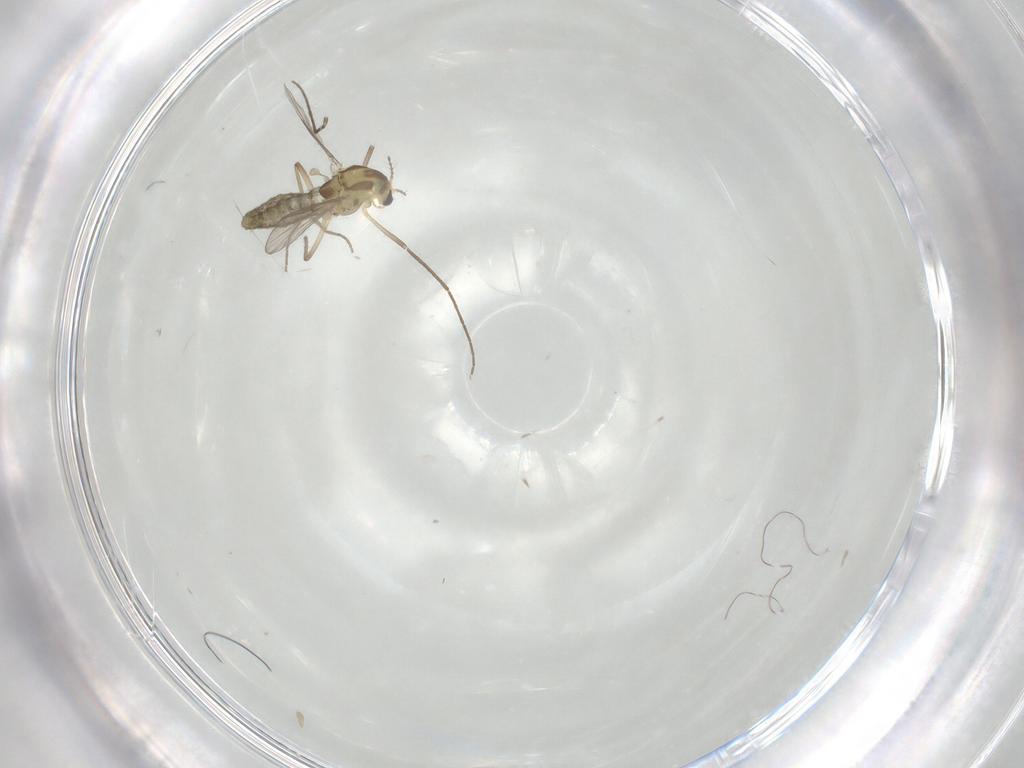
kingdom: Animalia
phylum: Arthropoda
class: Insecta
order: Diptera
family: Chironomidae
